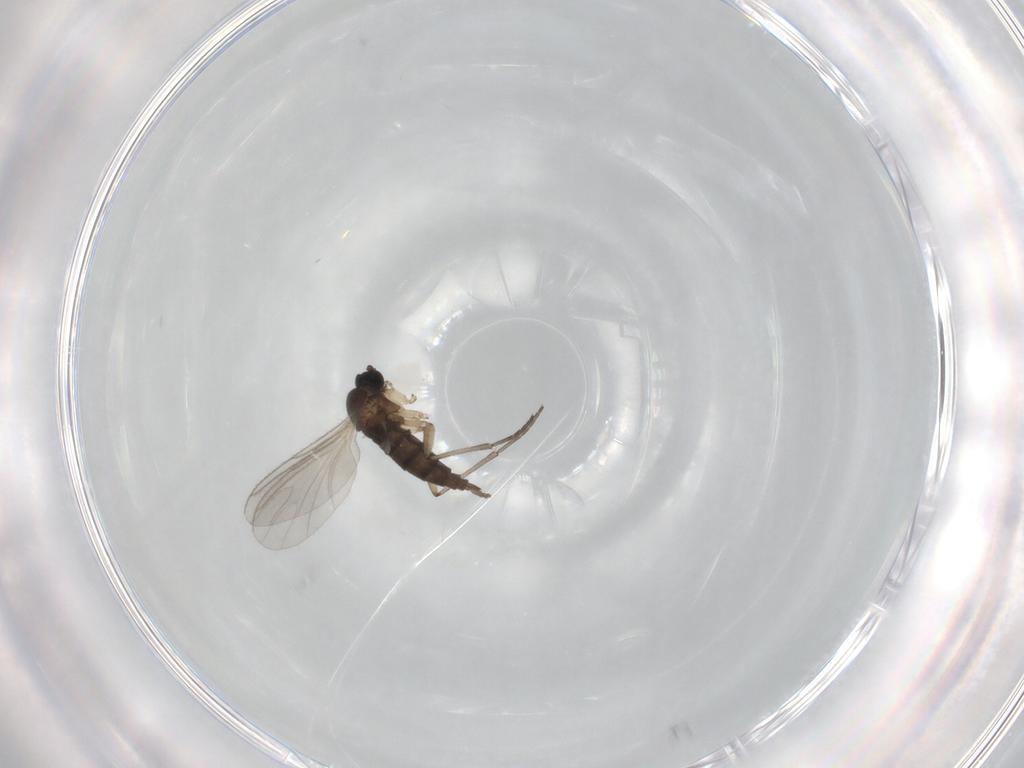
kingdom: Animalia
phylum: Arthropoda
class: Insecta
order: Diptera
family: Sciaridae
